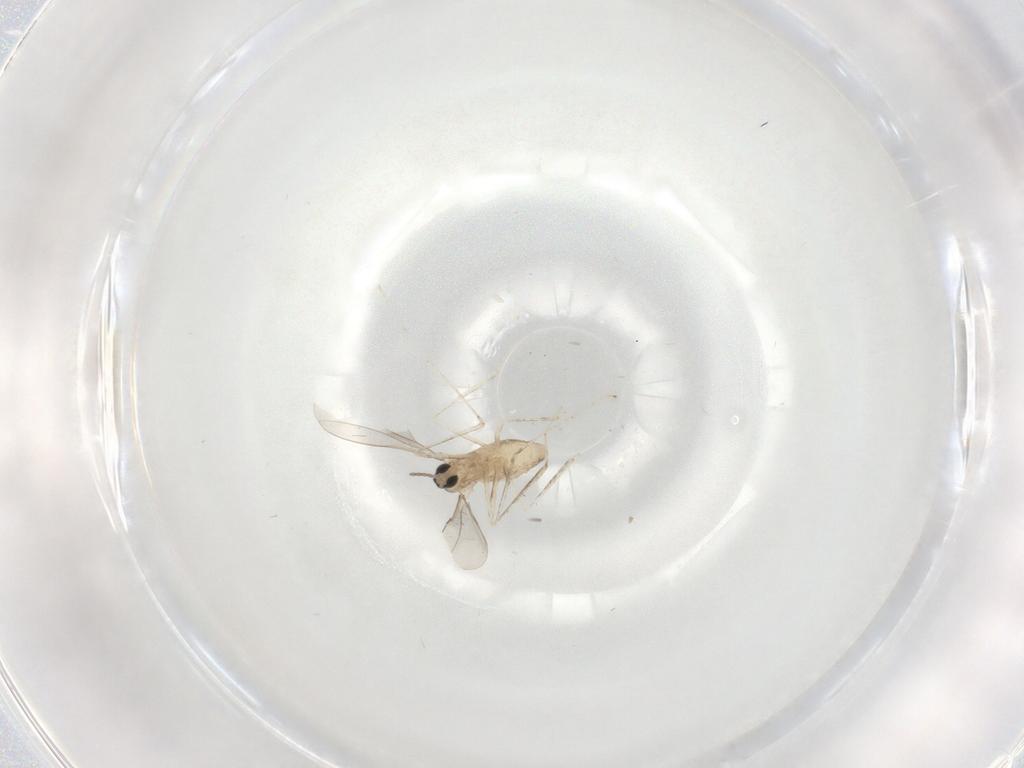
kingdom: Animalia
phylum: Arthropoda
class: Insecta
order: Diptera
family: Cecidomyiidae
